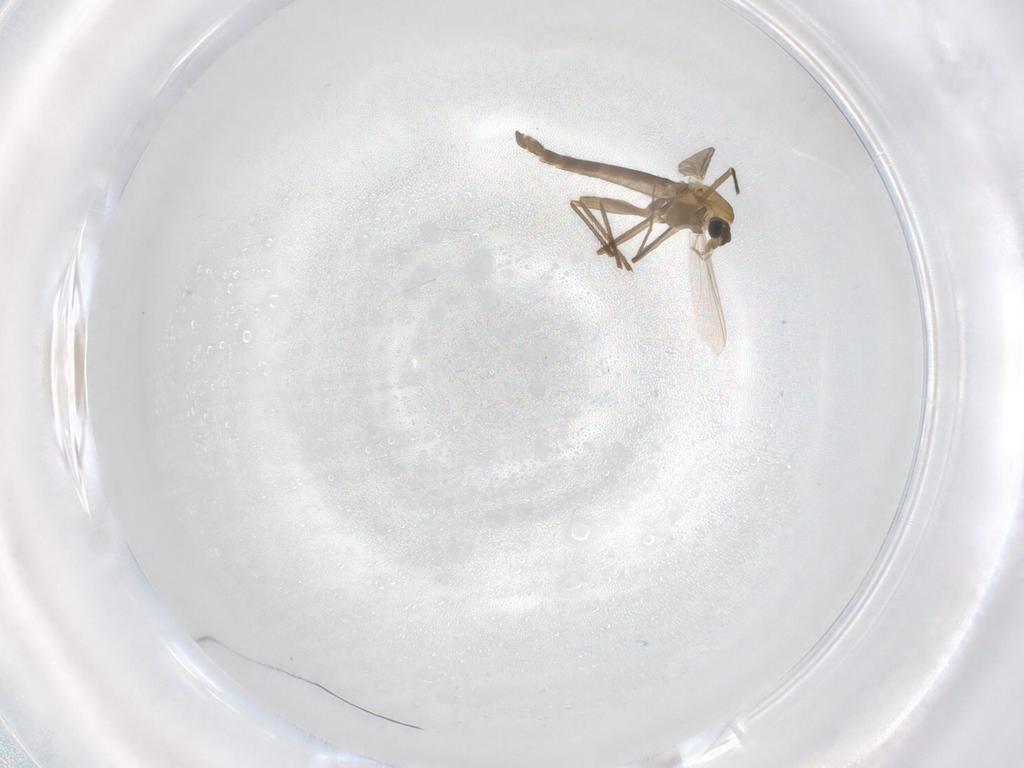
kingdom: Animalia
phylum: Arthropoda
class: Insecta
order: Diptera
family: Chironomidae
